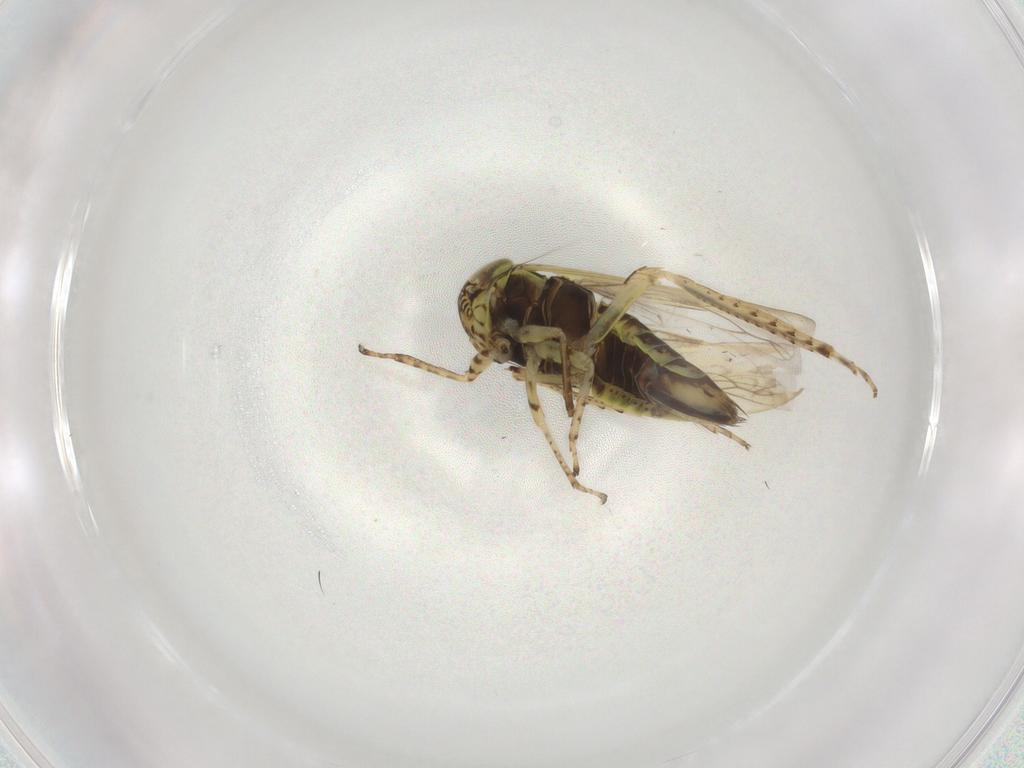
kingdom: Animalia
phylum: Arthropoda
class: Insecta
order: Hemiptera
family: Cicadellidae
